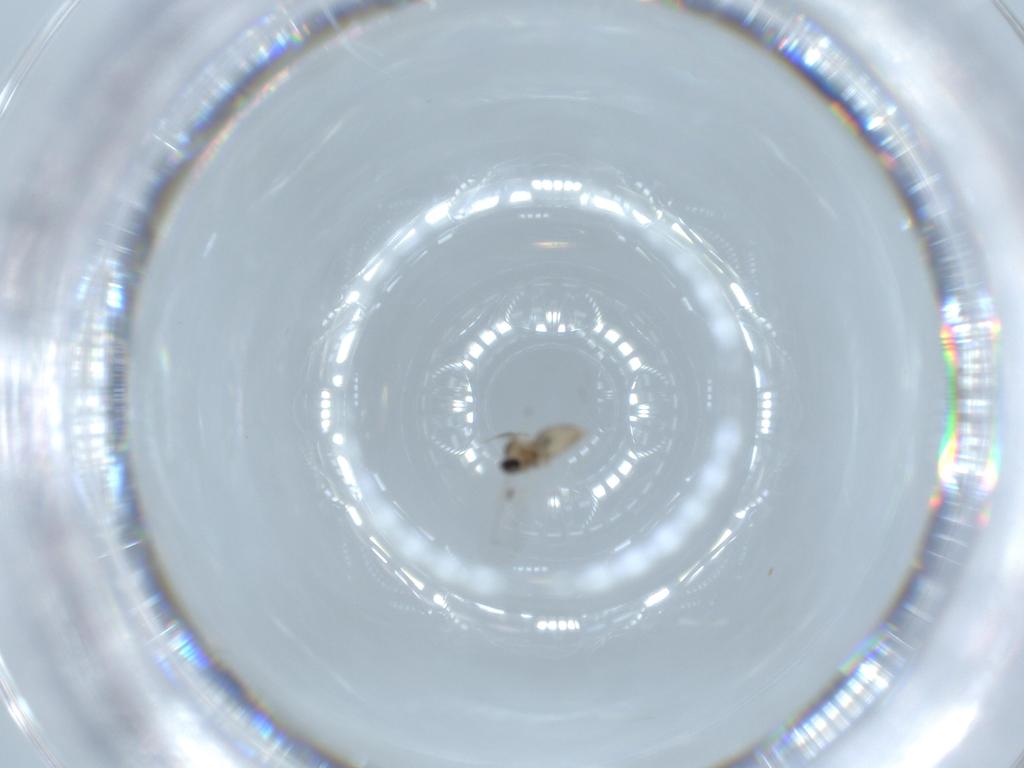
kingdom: Animalia
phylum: Arthropoda
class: Insecta
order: Diptera
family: Cecidomyiidae
